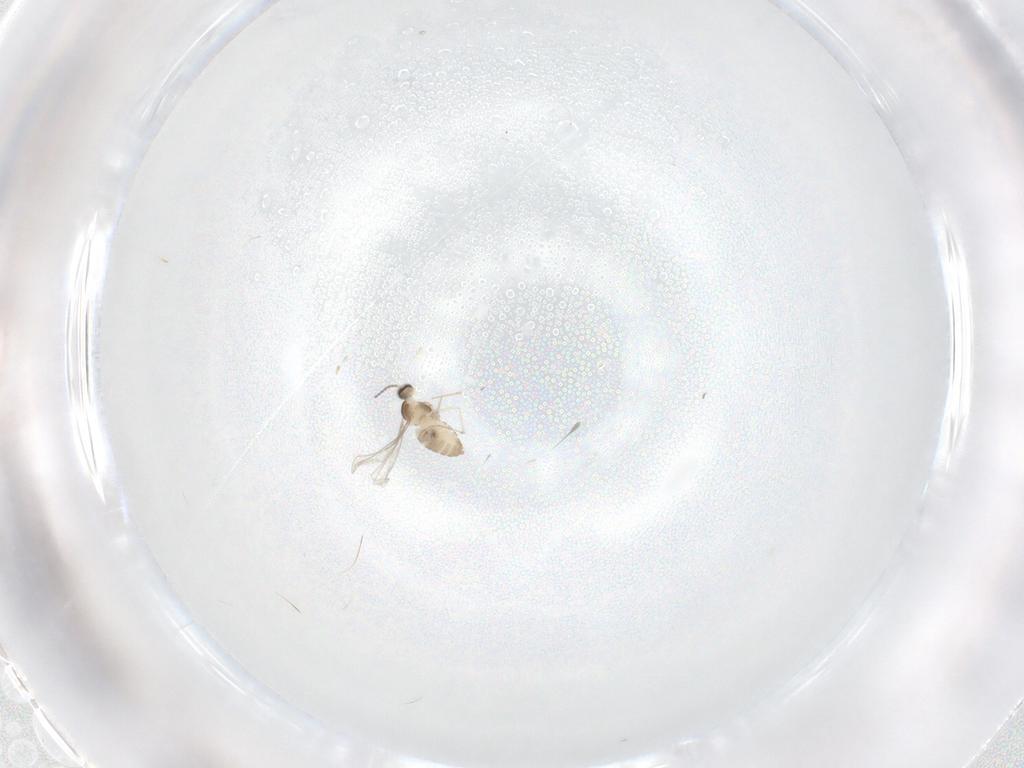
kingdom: Animalia
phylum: Arthropoda
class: Insecta
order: Diptera
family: Cecidomyiidae
